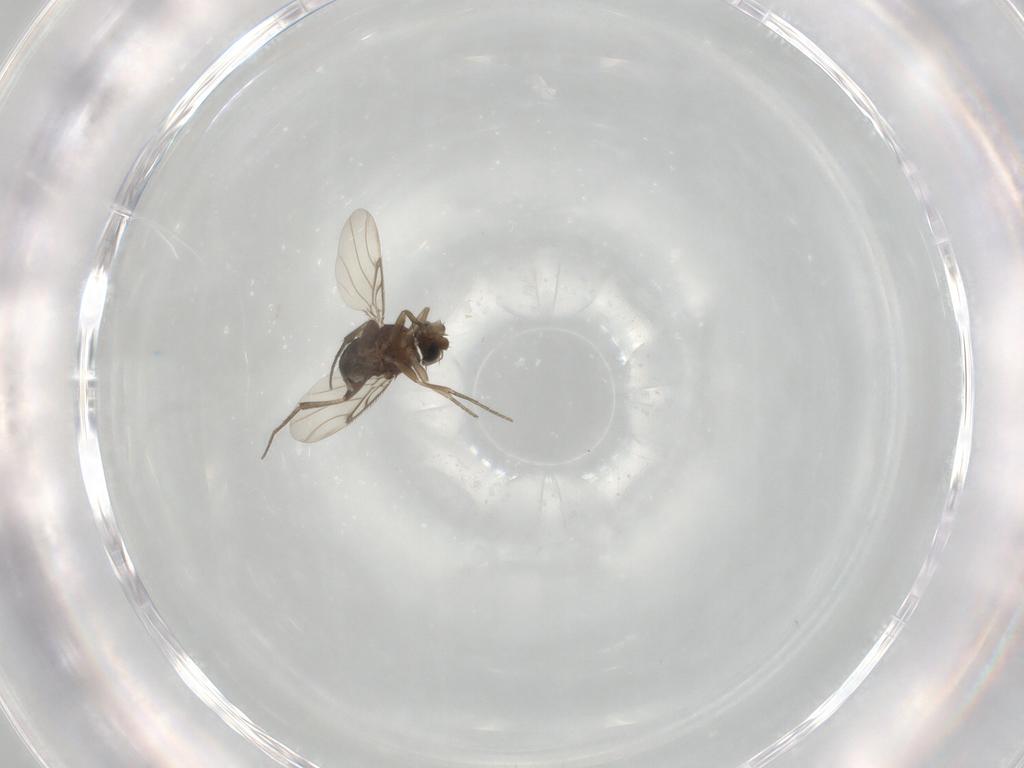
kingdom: Animalia
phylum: Arthropoda
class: Insecta
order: Diptera
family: Phoridae
